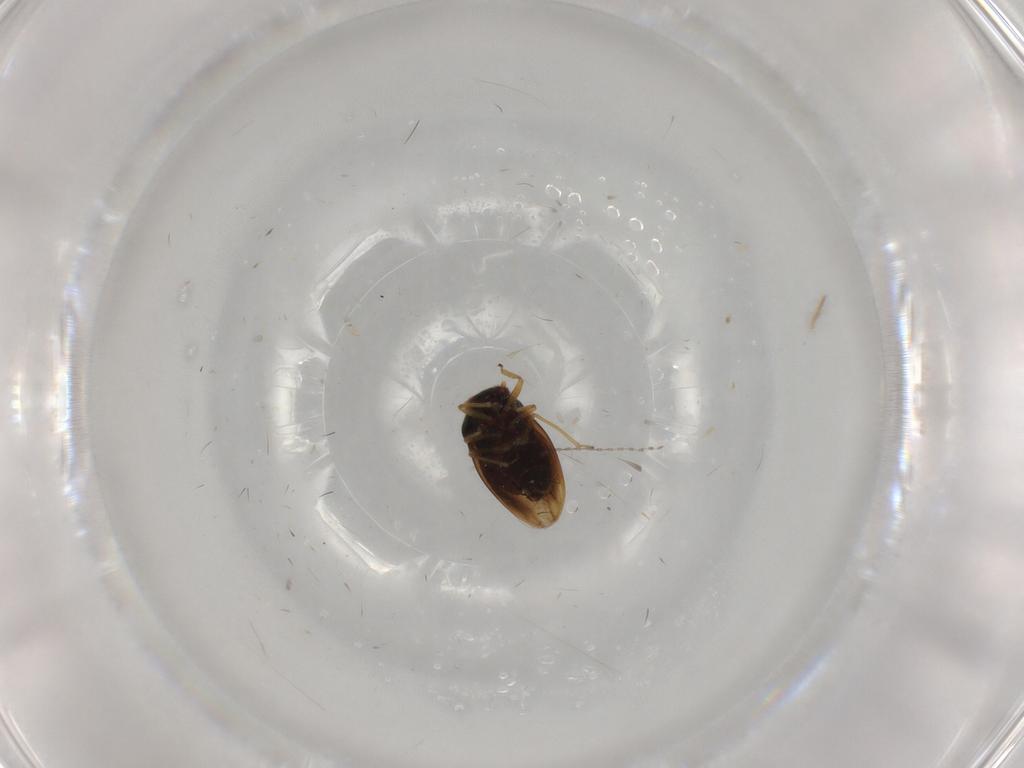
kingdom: Animalia
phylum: Arthropoda
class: Insecta
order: Hemiptera
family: Schizopteridae
